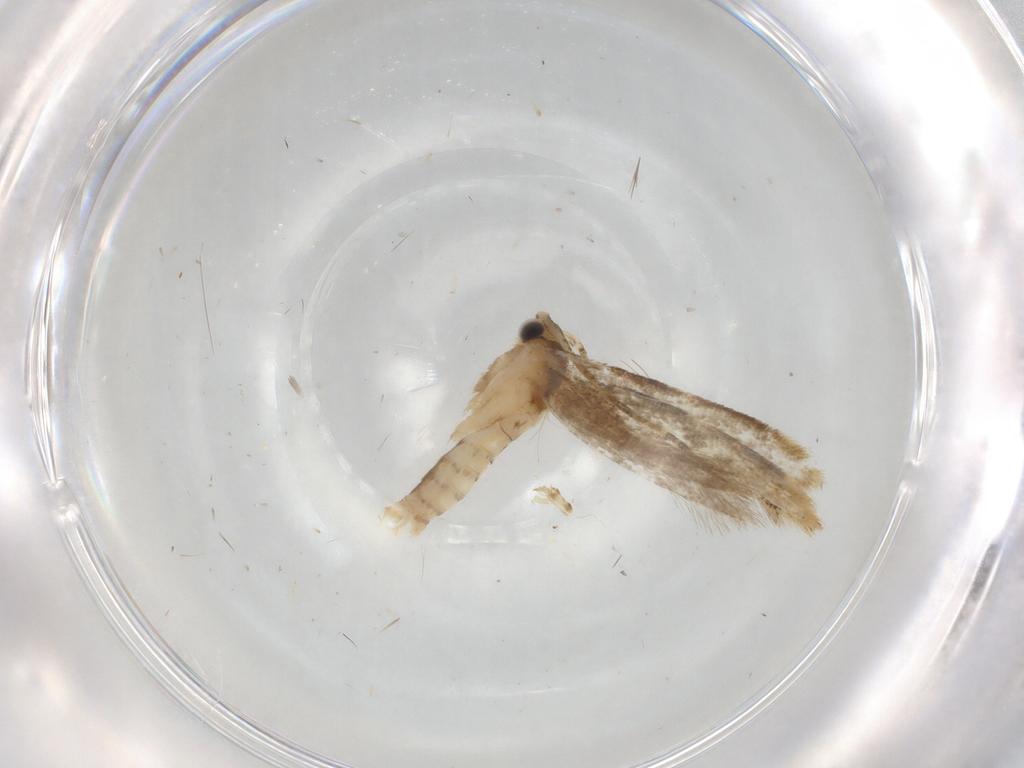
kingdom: Animalia
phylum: Arthropoda
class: Insecta
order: Lepidoptera
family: Dryadaulidae
